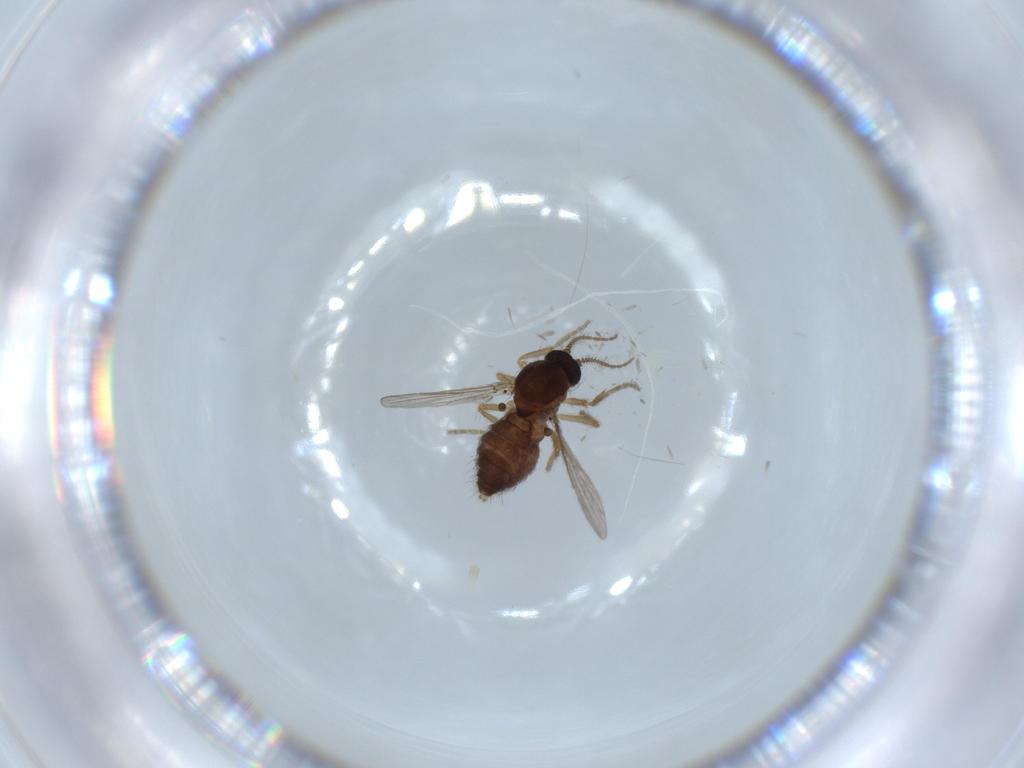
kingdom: Animalia
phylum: Arthropoda
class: Insecta
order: Diptera
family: Ceratopogonidae
